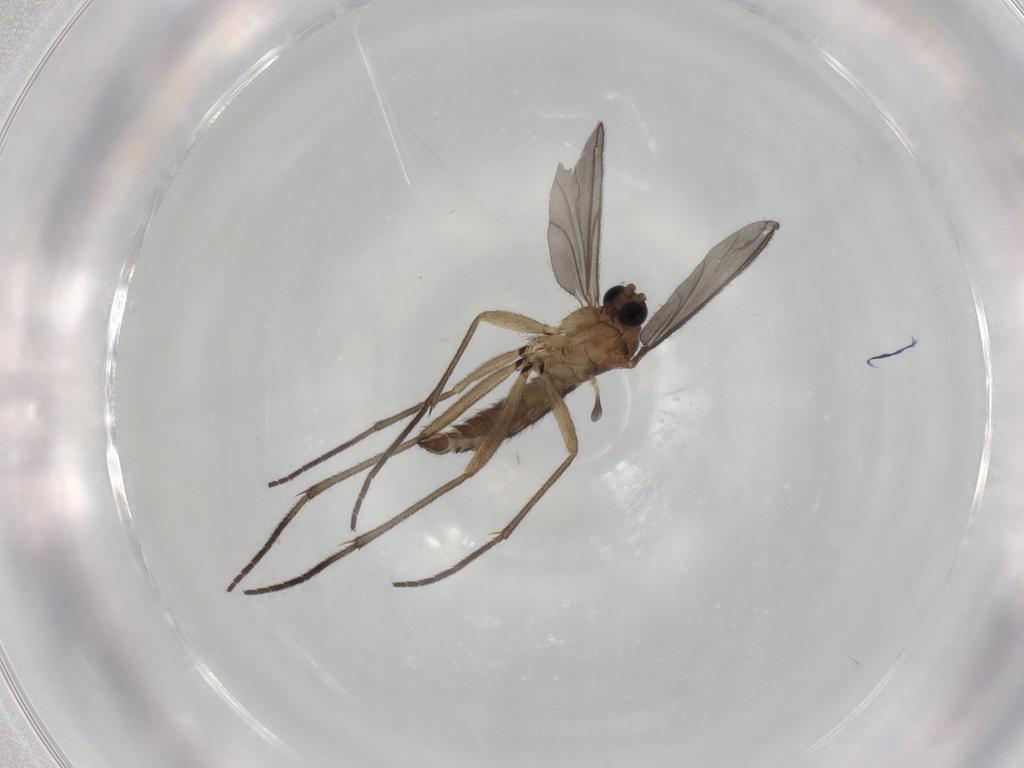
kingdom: Animalia
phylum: Arthropoda
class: Insecta
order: Diptera
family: Sciaridae
